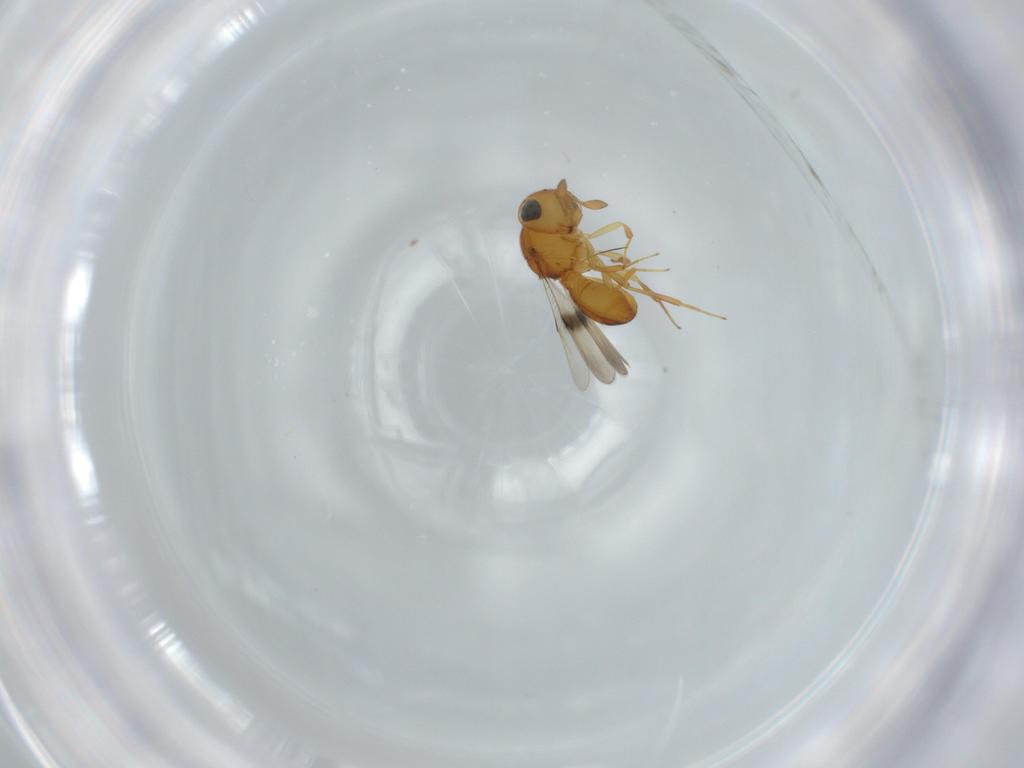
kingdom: Animalia
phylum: Arthropoda
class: Insecta
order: Hymenoptera
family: Scelionidae
